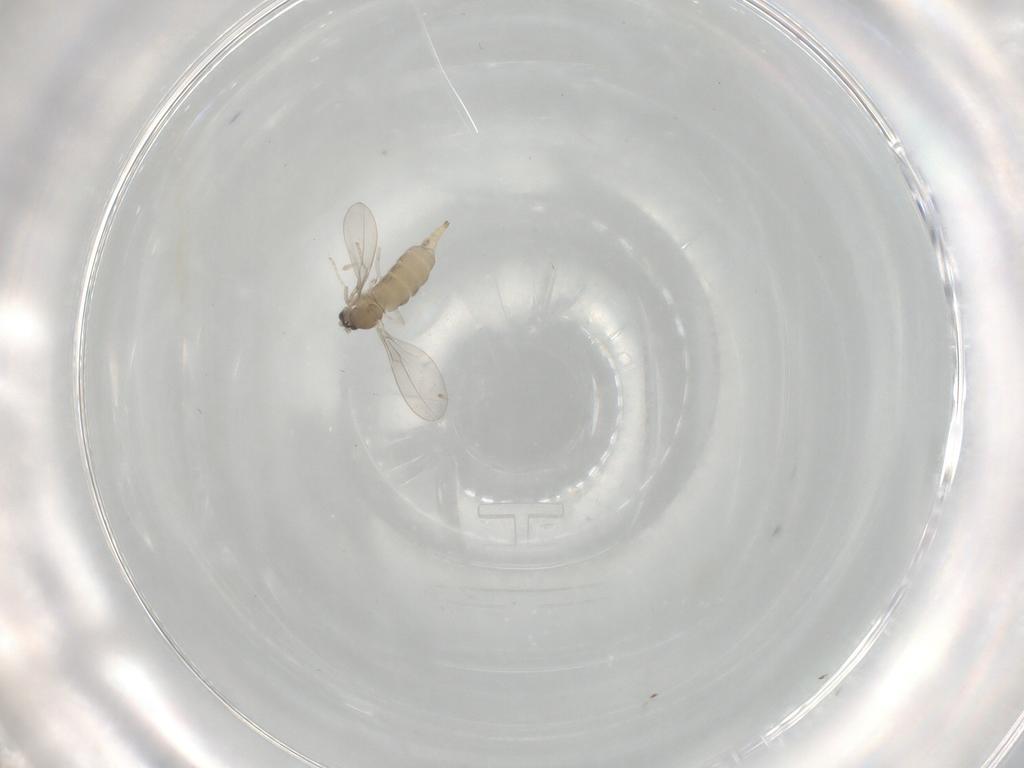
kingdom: Animalia
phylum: Arthropoda
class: Insecta
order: Diptera
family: Cecidomyiidae
